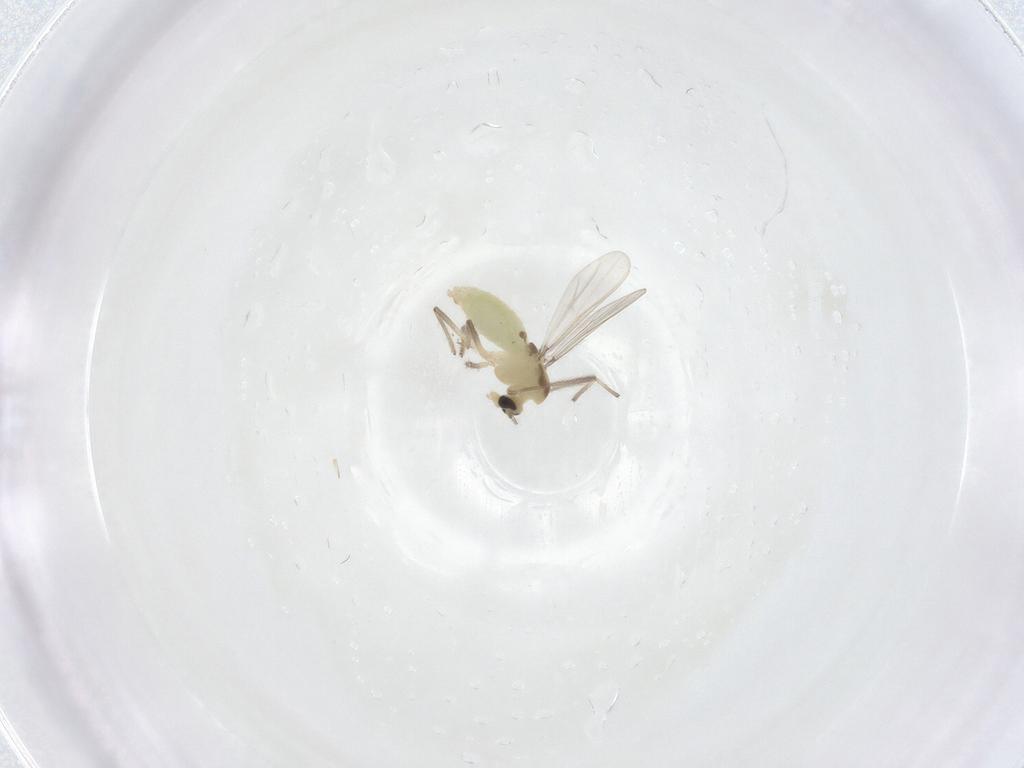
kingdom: Animalia
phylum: Arthropoda
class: Insecta
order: Diptera
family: Chironomidae
